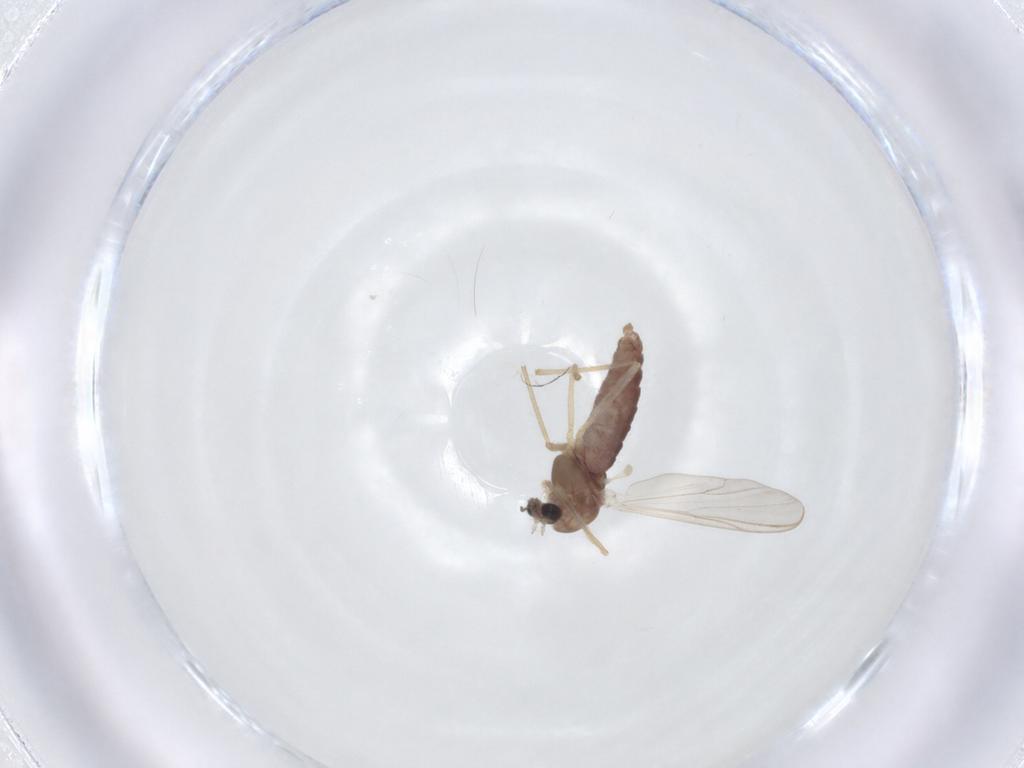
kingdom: Animalia
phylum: Arthropoda
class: Insecta
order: Diptera
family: Chironomidae
